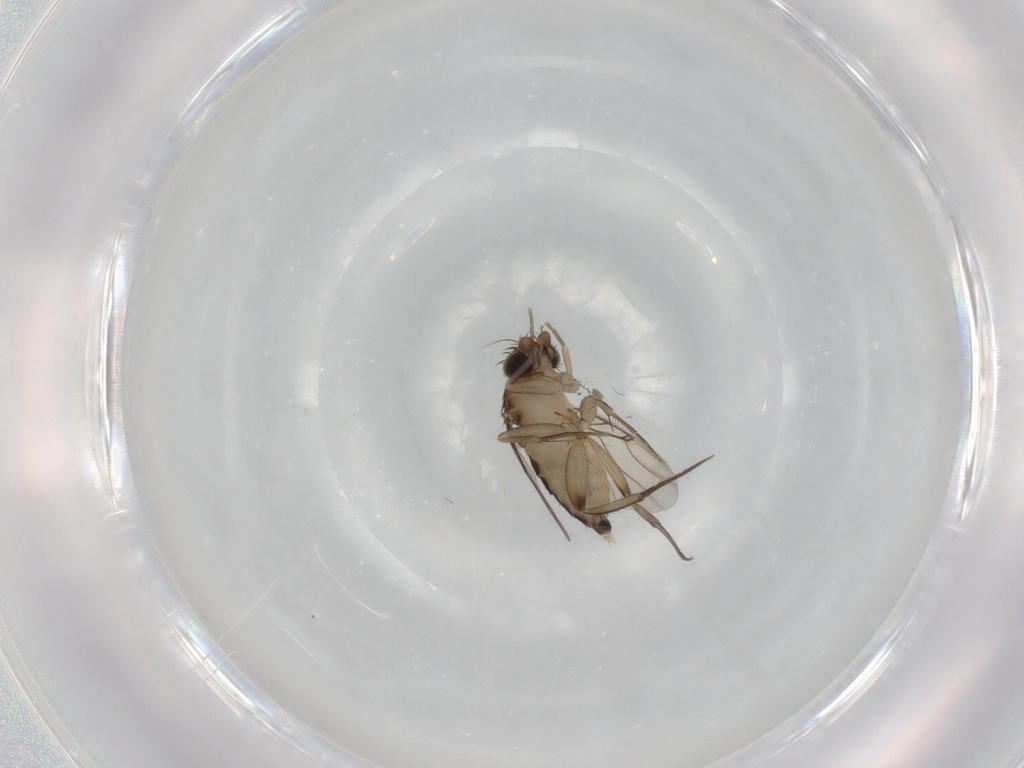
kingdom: Animalia
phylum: Arthropoda
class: Insecta
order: Diptera
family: Phoridae
